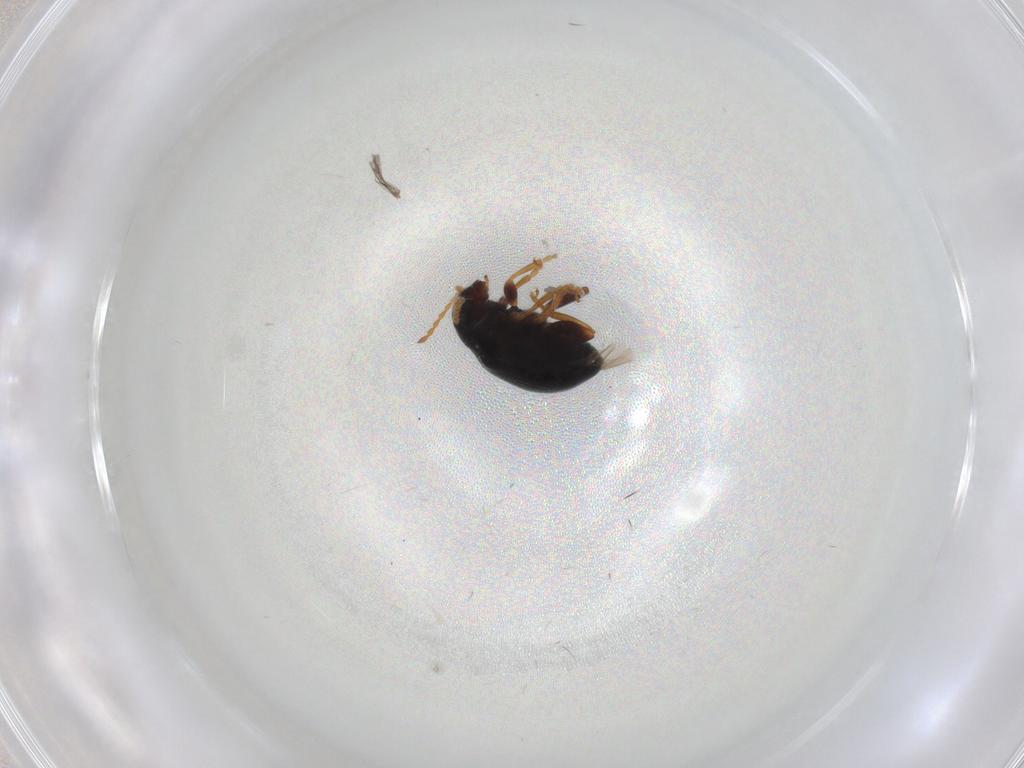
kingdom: Animalia
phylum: Arthropoda
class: Insecta
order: Coleoptera
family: Chrysomelidae
